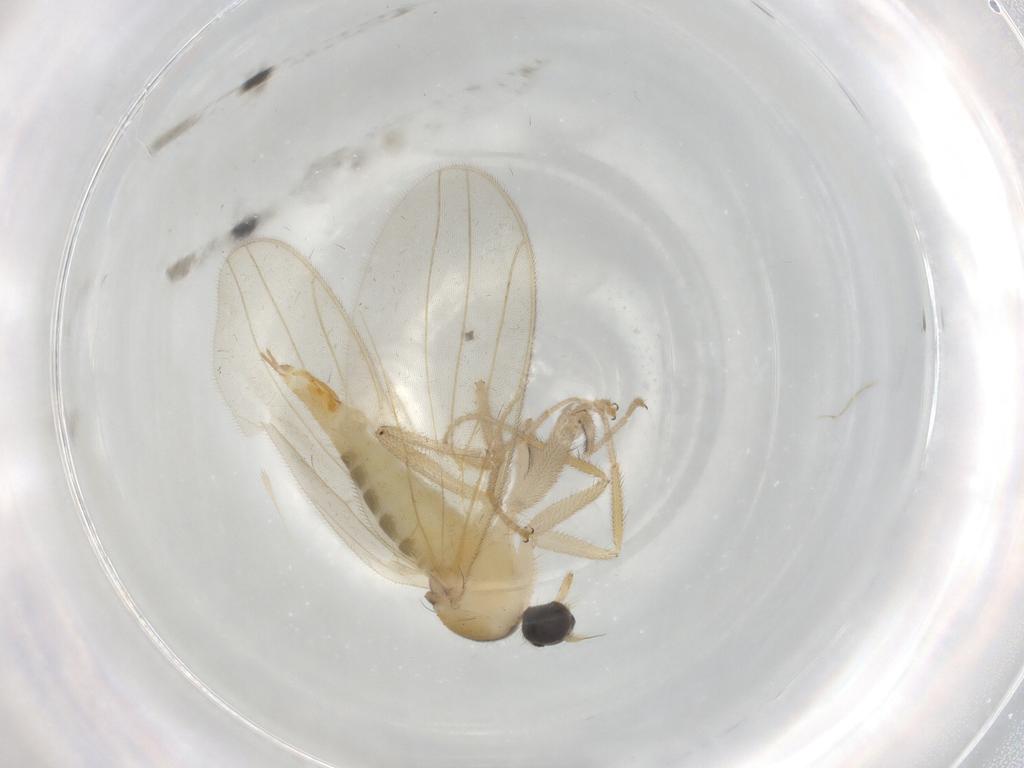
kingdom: Animalia
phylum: Arthropoda
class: Insecta
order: Diptera
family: Hybotidae
